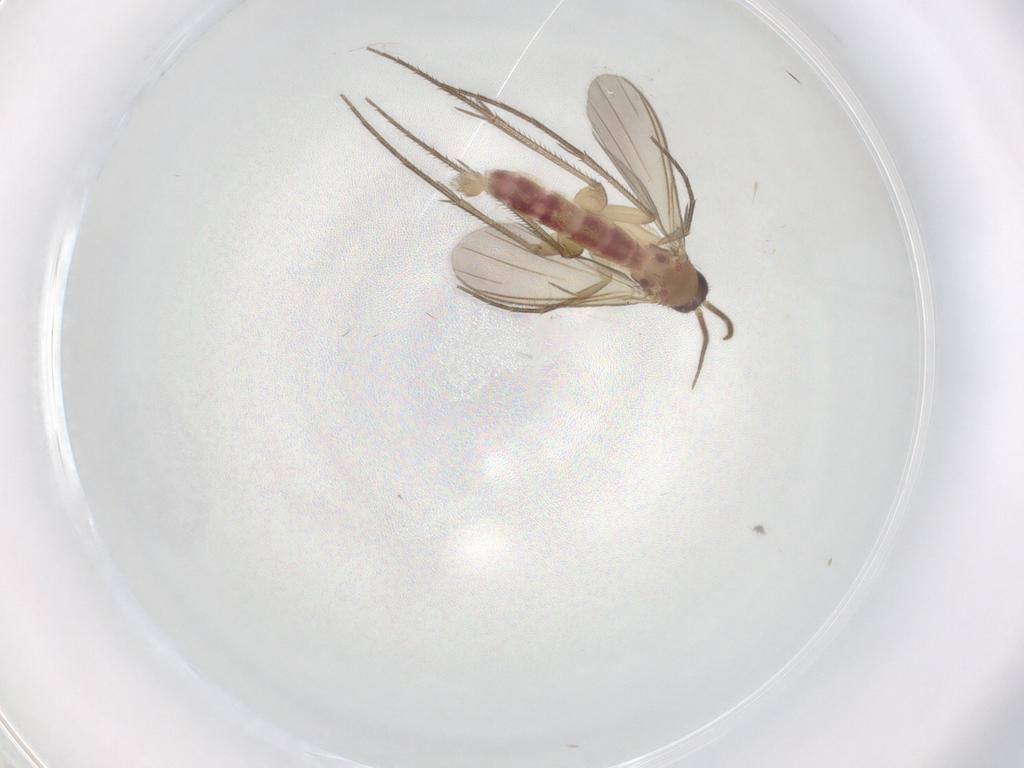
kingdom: Animalia
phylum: Arthropoda
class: Insecta
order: Diptera
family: Mycetophilidae
